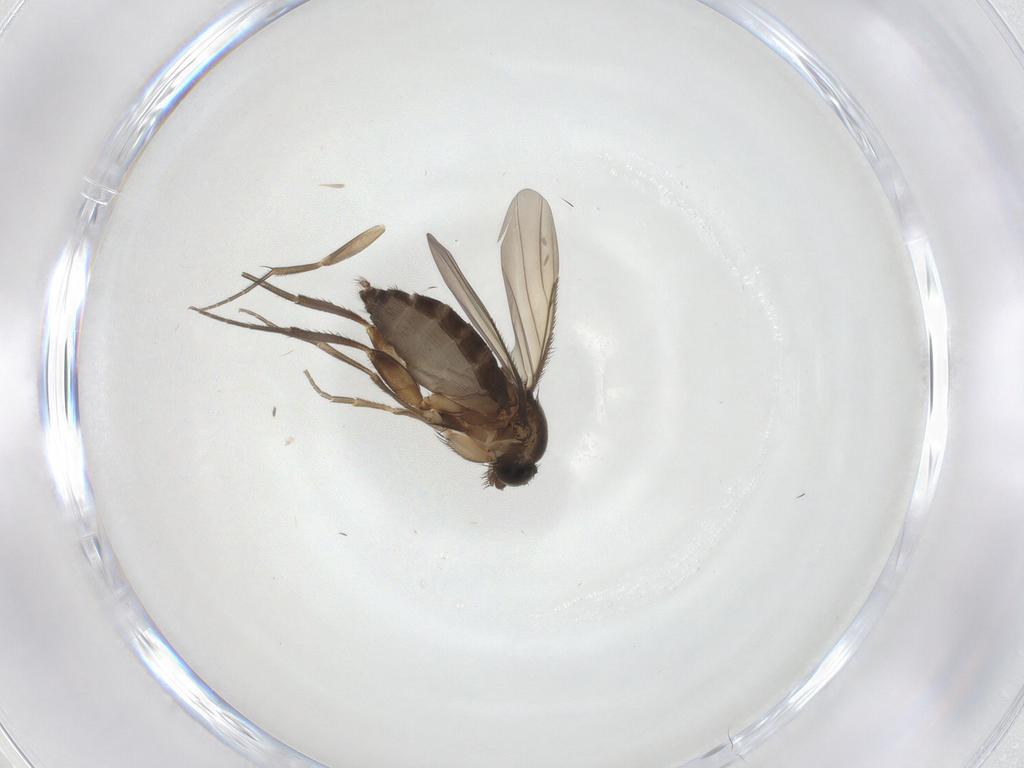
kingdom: Animalia
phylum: Arthropoda
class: Insecta
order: Diptera
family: Phoridae
